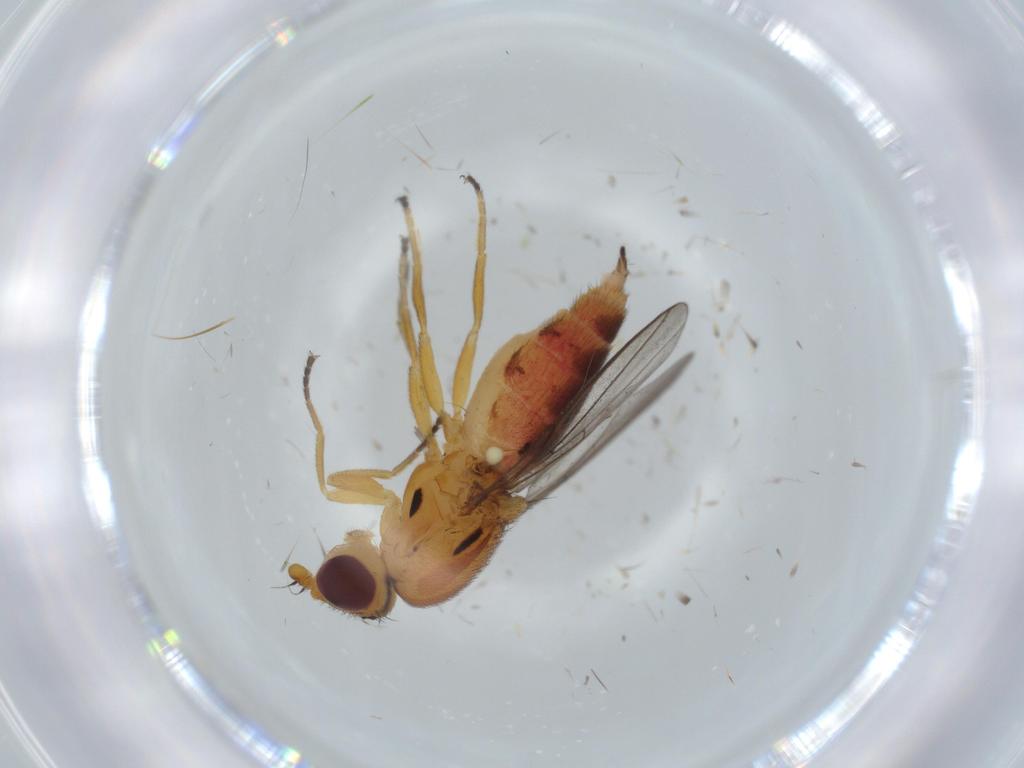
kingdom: Animalia
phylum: Arthropoda
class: Insecta
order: Diptera
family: Chloropidae
